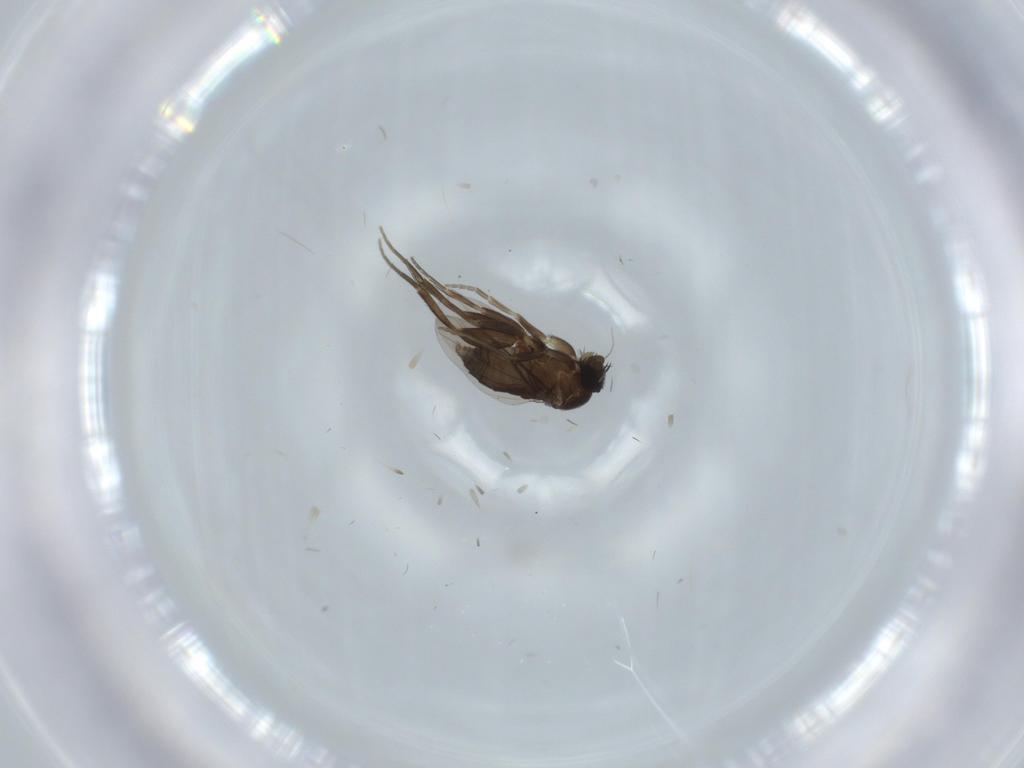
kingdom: Animalia
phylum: Arthropoda
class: Insecta
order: Diptera
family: Phoridae
